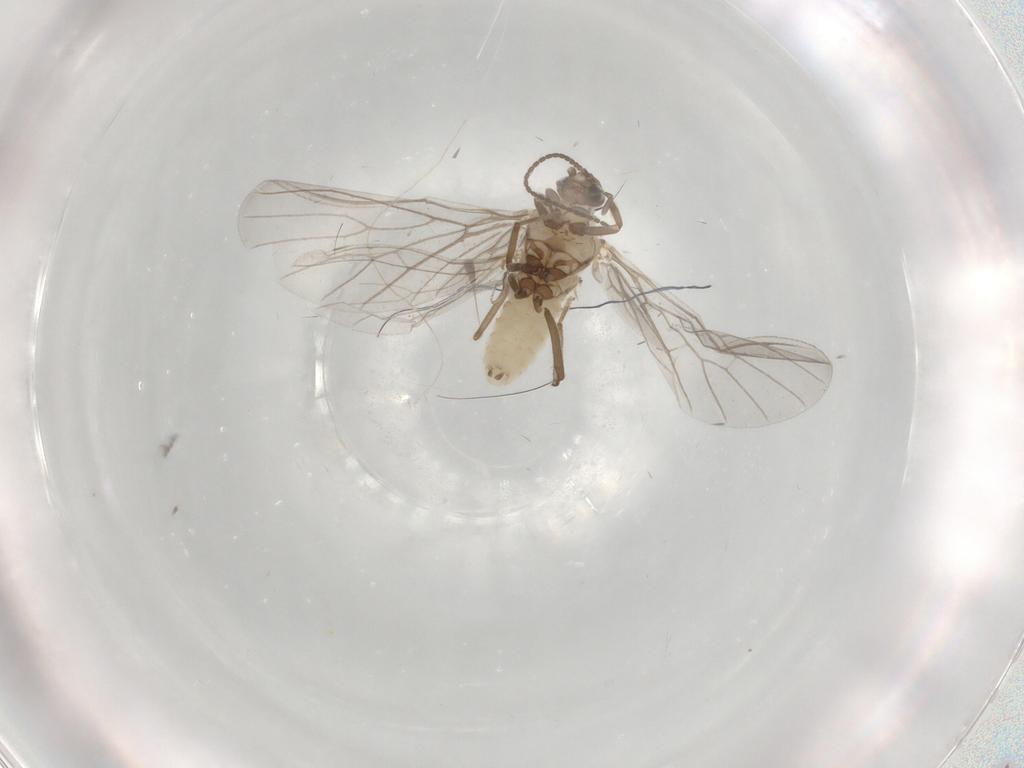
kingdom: Animalia
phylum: Arthropoda
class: Insecta
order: Neuroptera
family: Coniopterygidae
